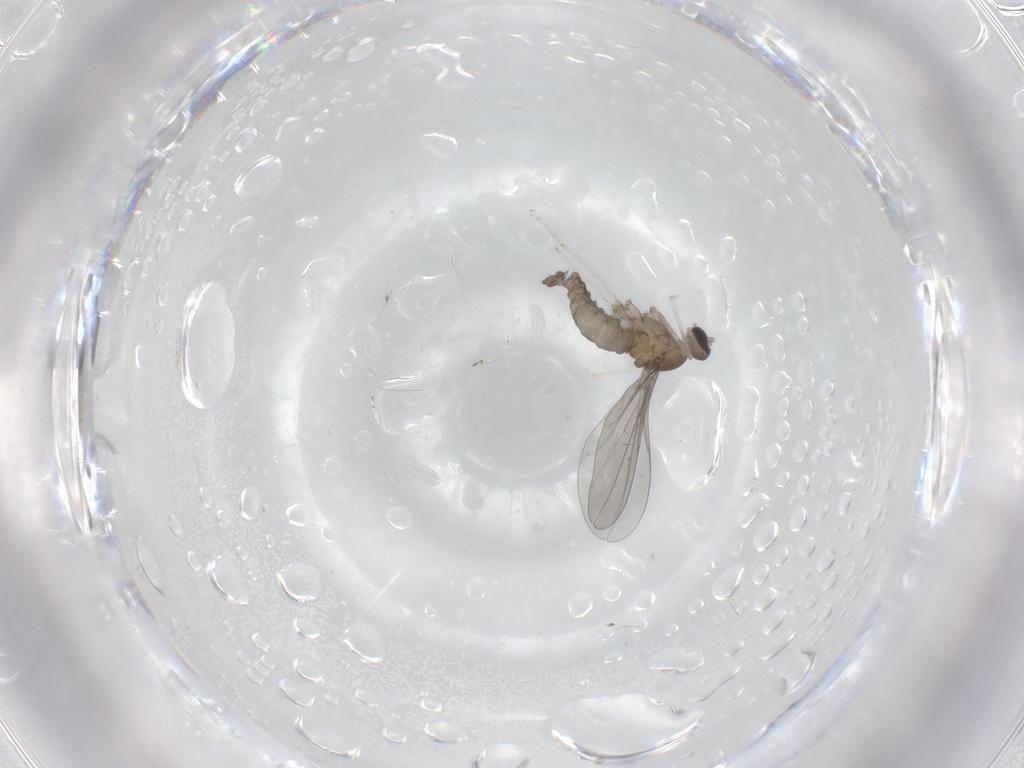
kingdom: Animalia
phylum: Arthropoda
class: Insecta
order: Diptera
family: Cecidomyiidae
